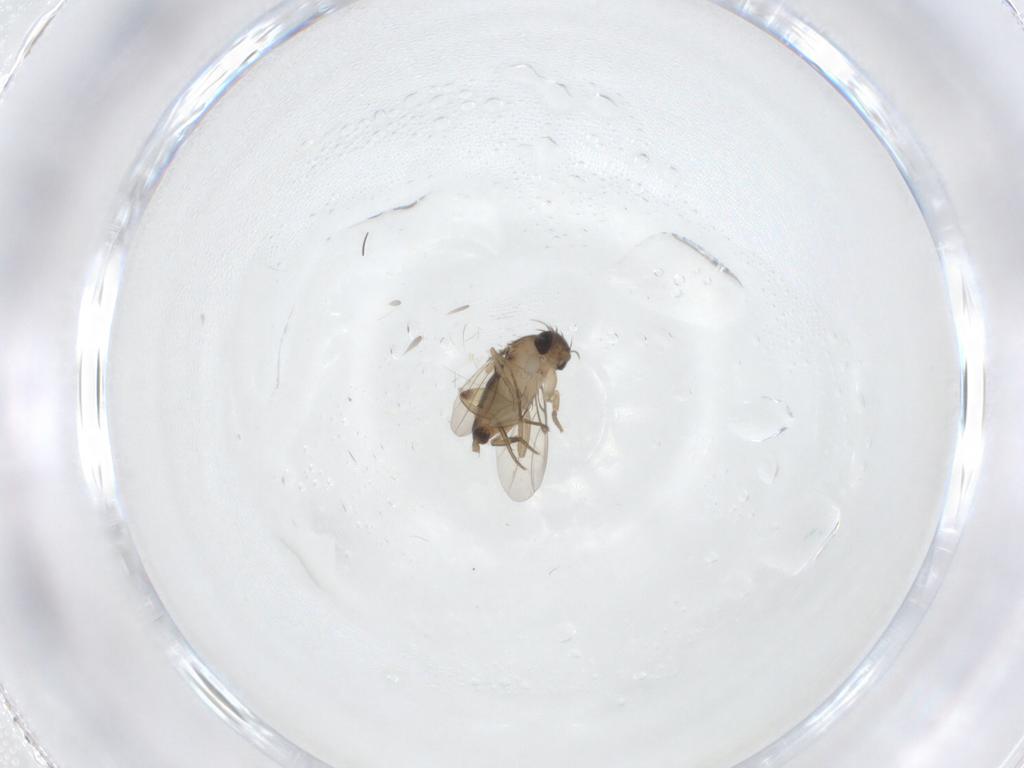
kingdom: Animalia
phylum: Arthropoda
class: Insecta
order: Diptera
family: Phoridae
